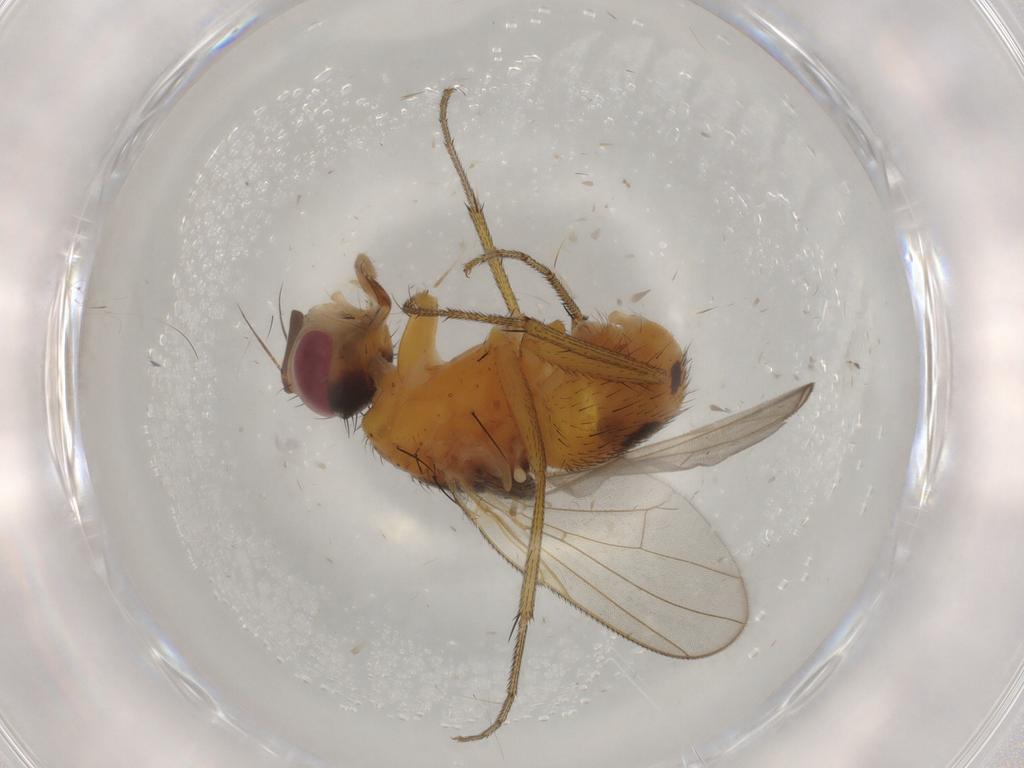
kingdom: Animalia
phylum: Arthropoda
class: Insecta
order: Diptera
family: Muscidae
